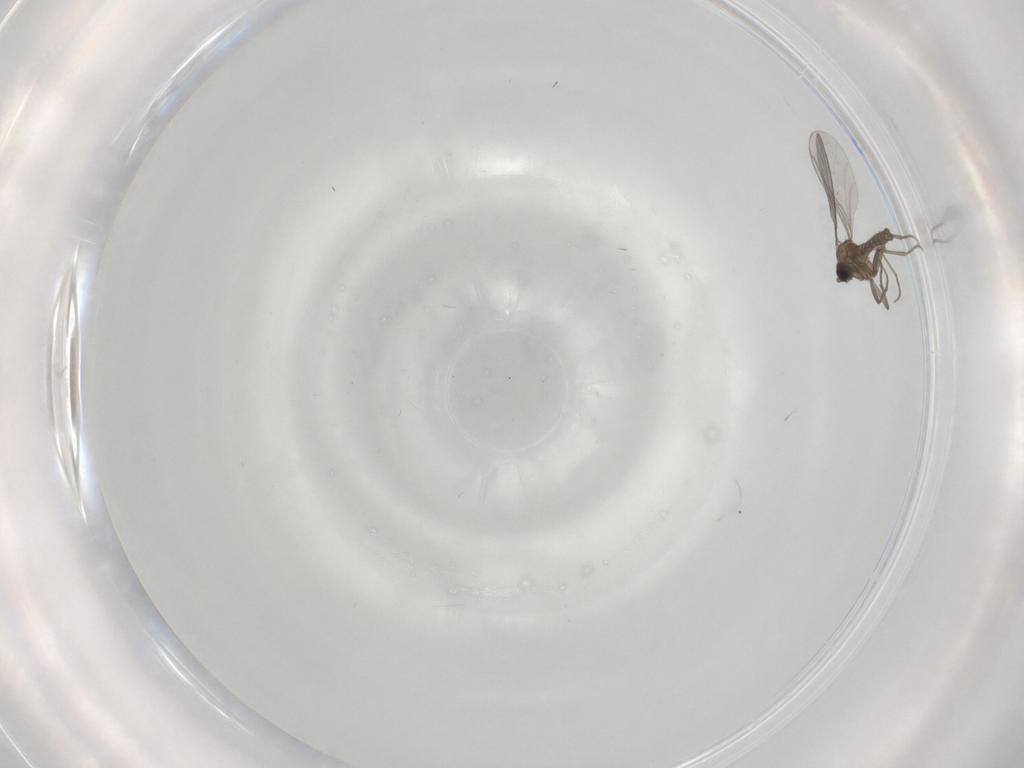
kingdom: Animalia
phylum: Arthropoda
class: Insecta
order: Diptera
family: Sciaridae
